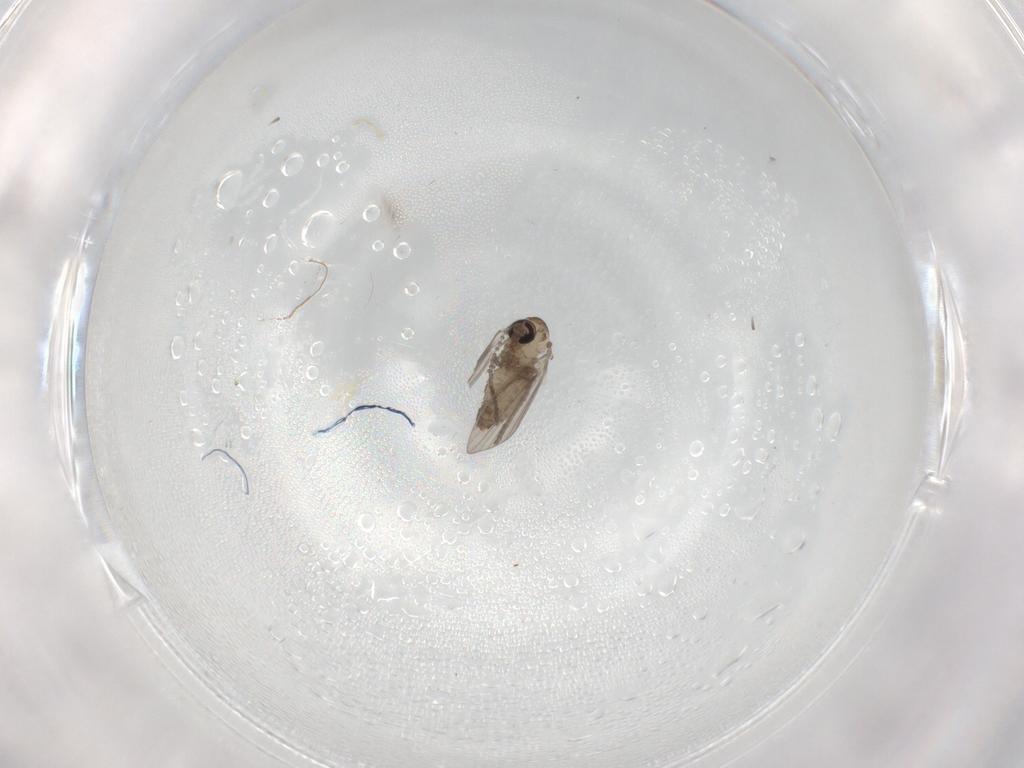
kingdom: Animalia
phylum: Arthropoda
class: Insecta
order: Diptera
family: Psychodidae
